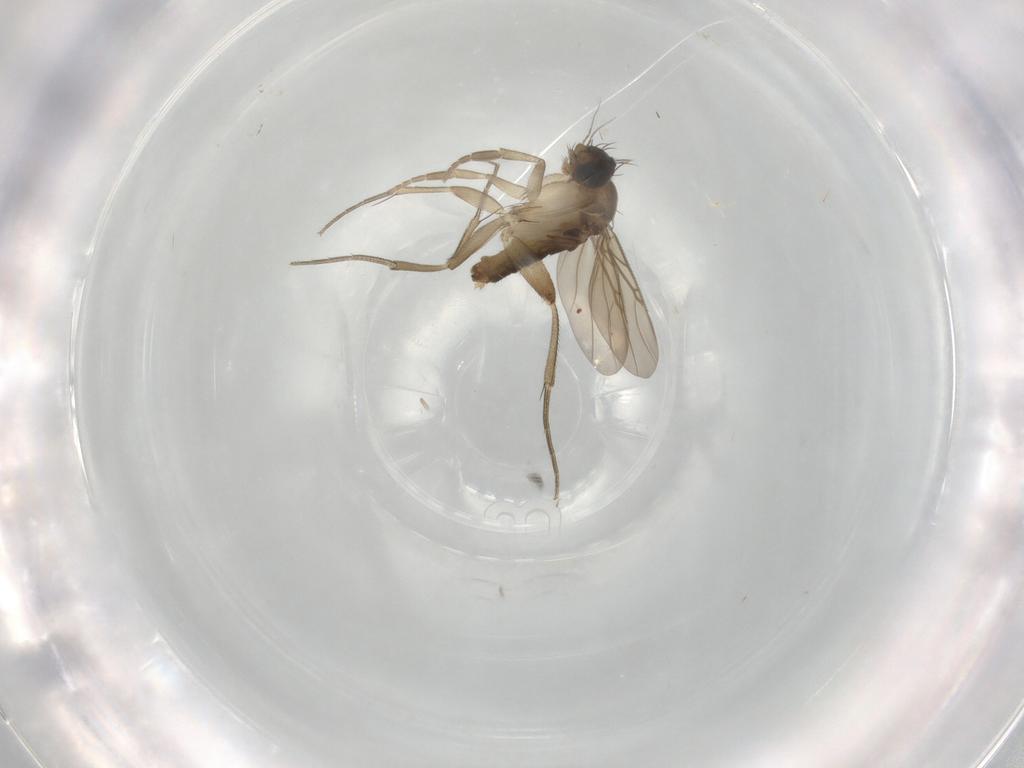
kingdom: Animalia
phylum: Arthropoda
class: Insecta
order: Diptera
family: Phoridae
